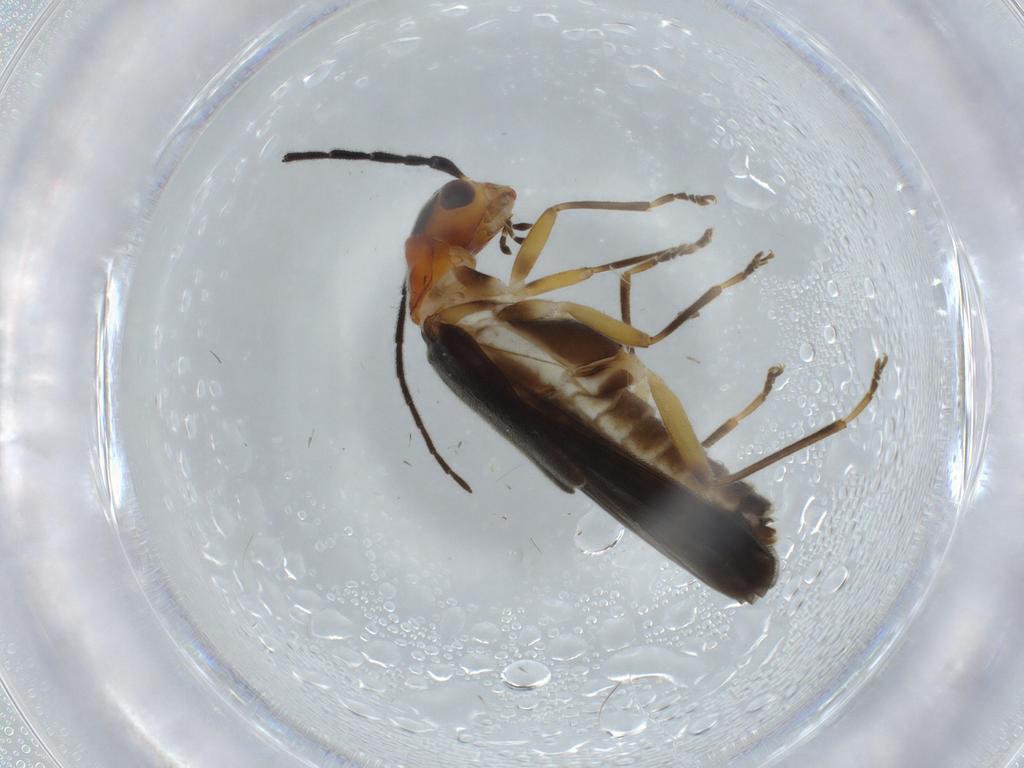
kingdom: Animalia
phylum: Arthropoda
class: Insecta
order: Coleoptera
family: Cantharidae
